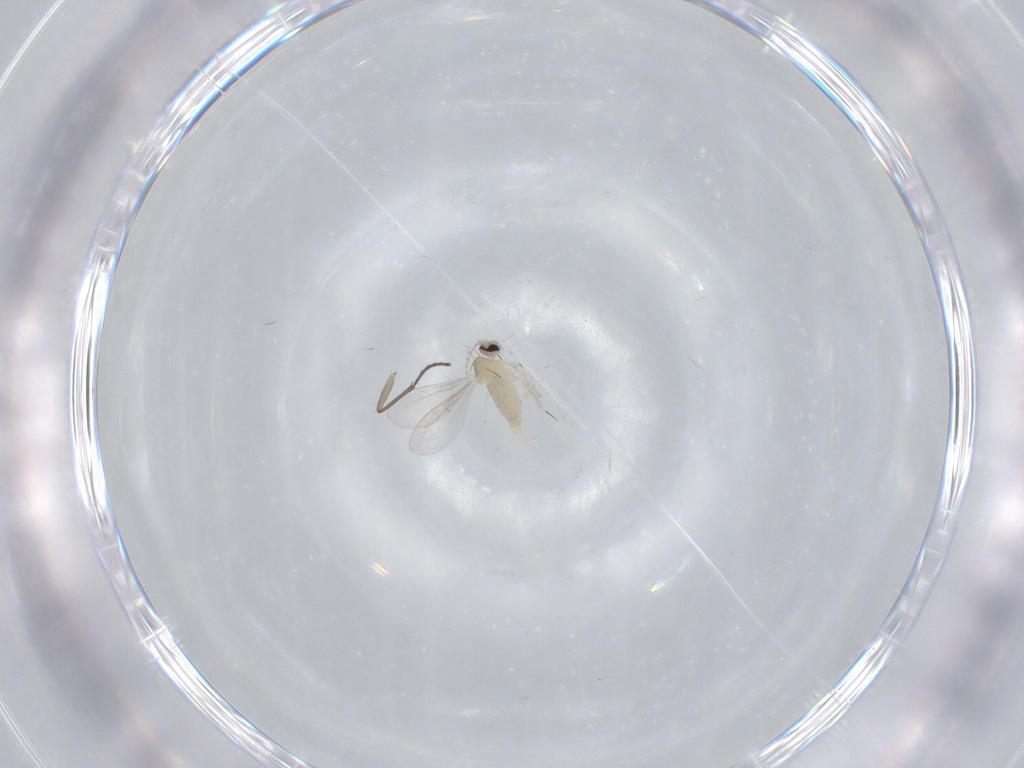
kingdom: Animalia
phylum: Arthropoda
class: Insecta
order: Diptera
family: Cecidomyiidae
